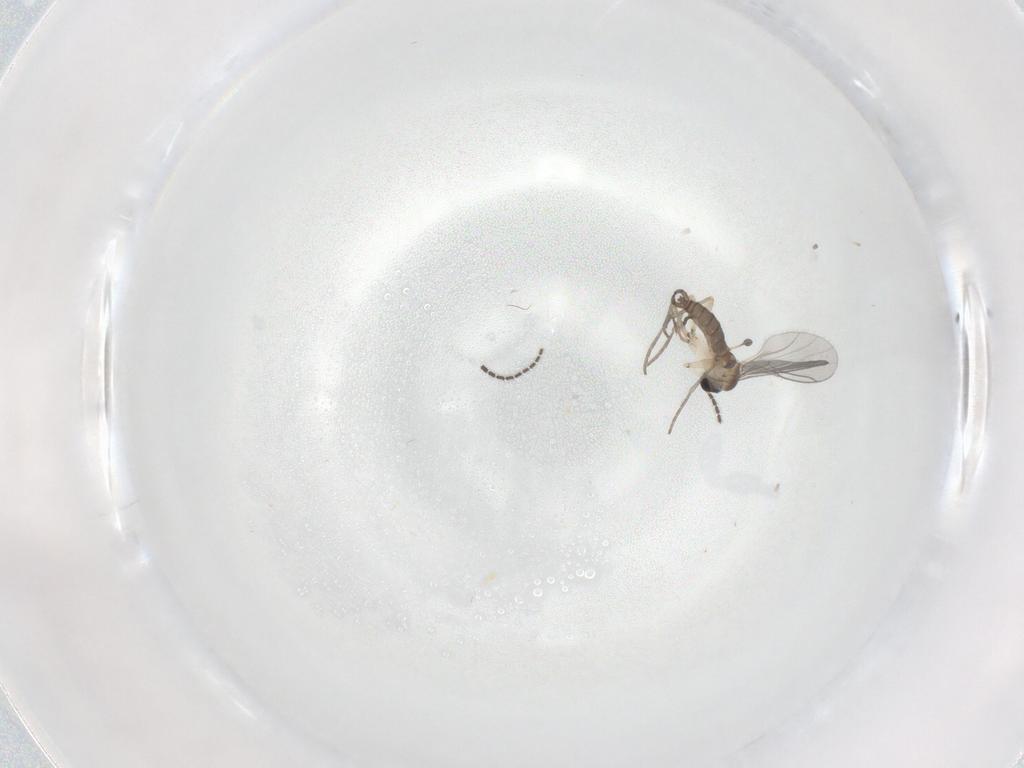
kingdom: Animalia
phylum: Arthropoda
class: Insecta
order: Diptera
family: Sciaridae
